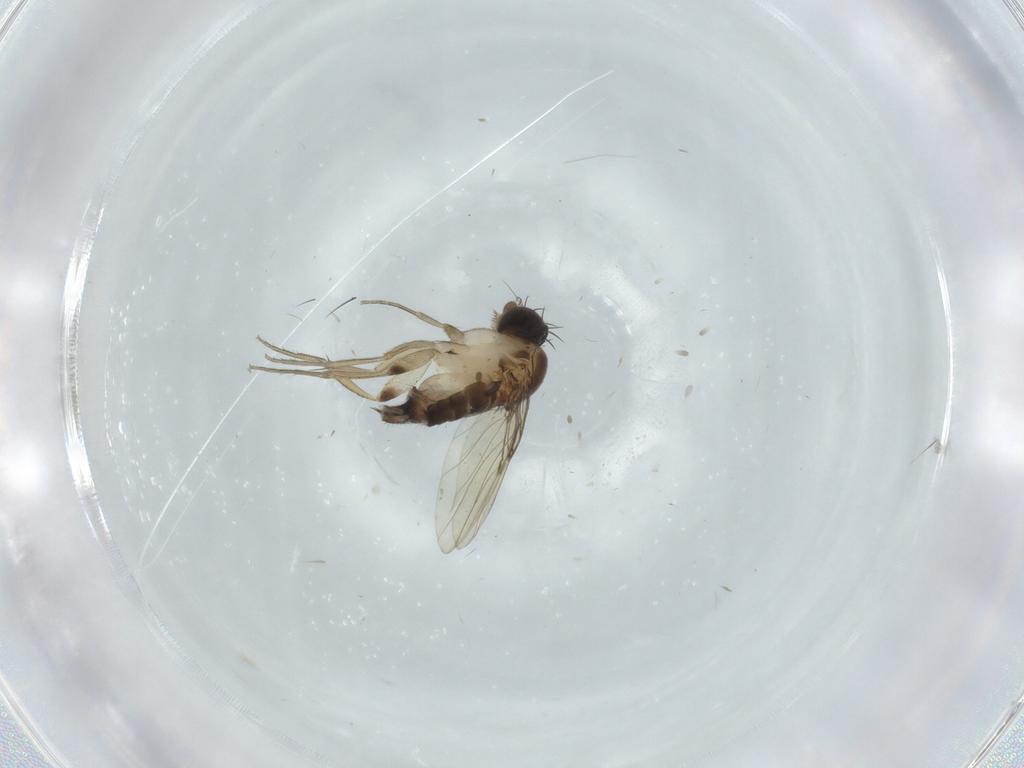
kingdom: Animalia
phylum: Arthropoda
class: Insecta
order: Diptera
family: Phoridae
